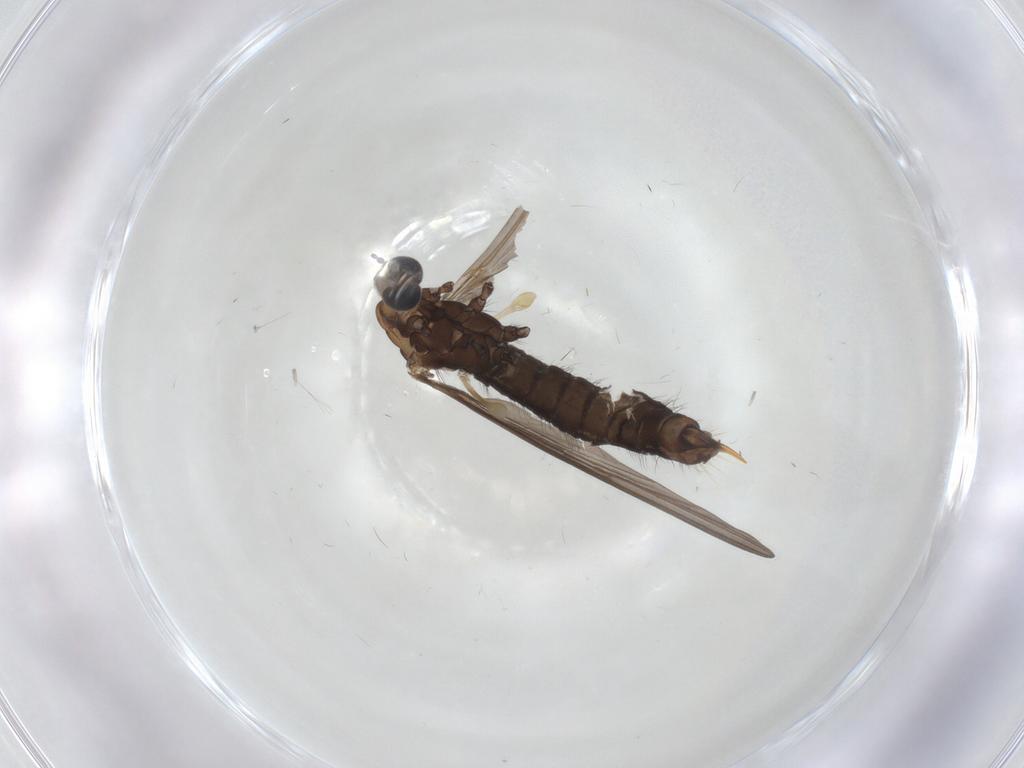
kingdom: Animalia
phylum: Arthropoda
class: Insecta
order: Diptera
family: Limoniidae
